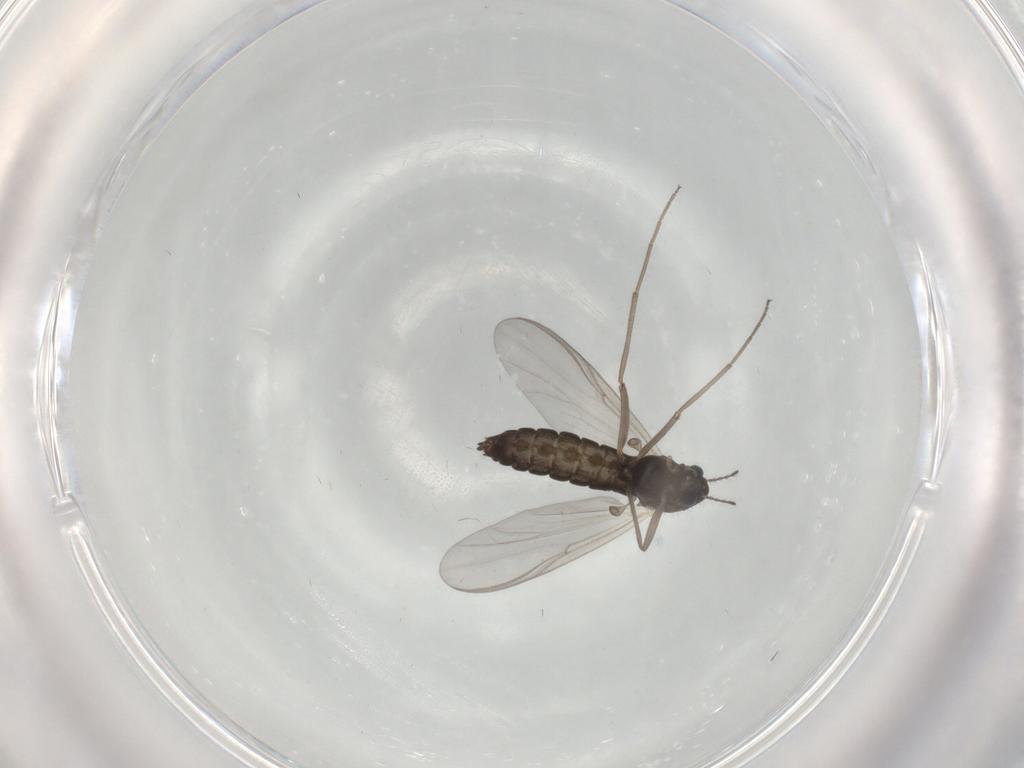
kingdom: Animalia
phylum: Arthropoda
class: Insecta
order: Diptera
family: Chironomidae
